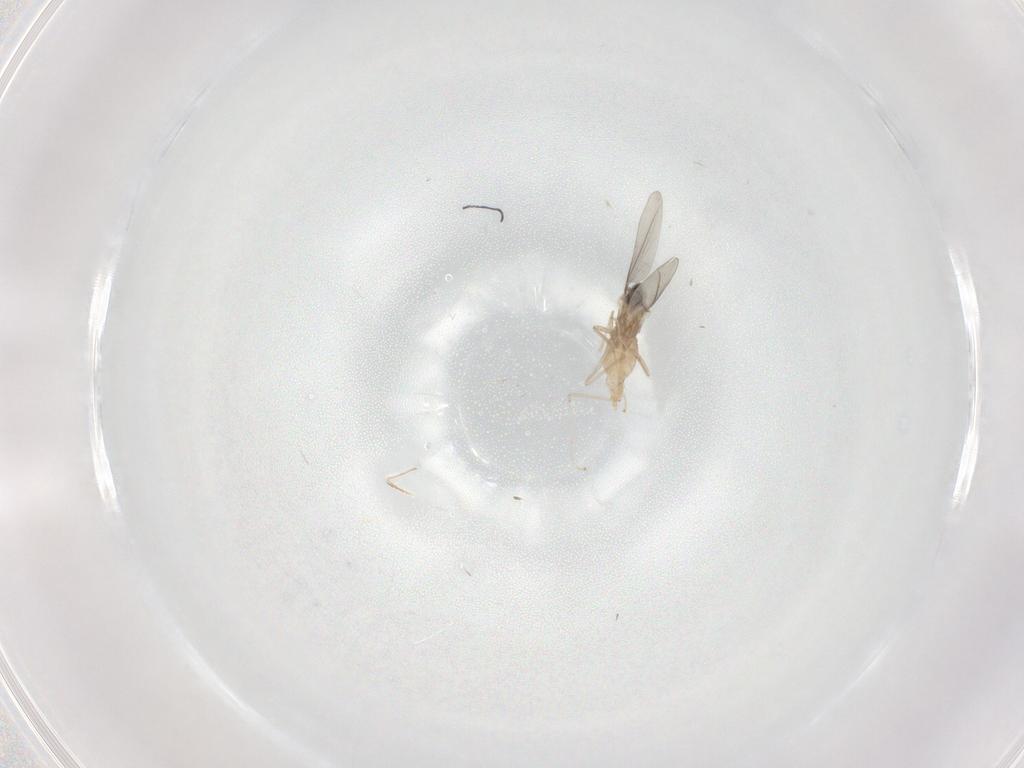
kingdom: Animalia
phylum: Arthropoda
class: Insecta
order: Diptera
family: Cecidomyiidae
